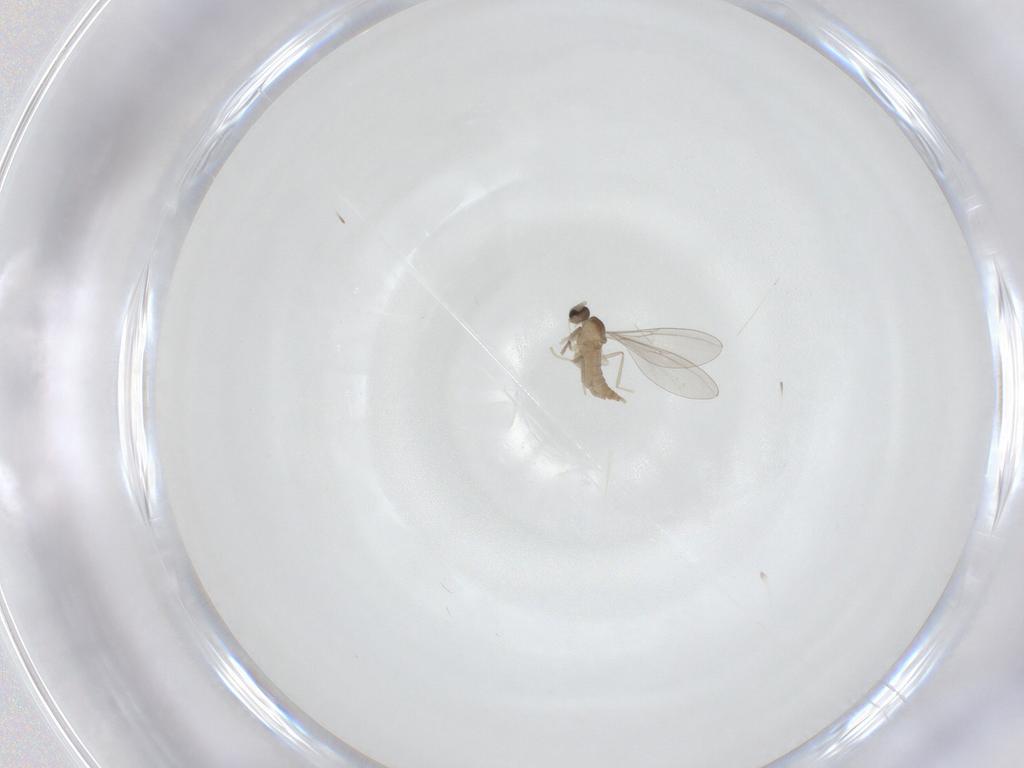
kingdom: Animalia
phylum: Arthropoda
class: Insecta
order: Diptera
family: Cecidomyiidae
